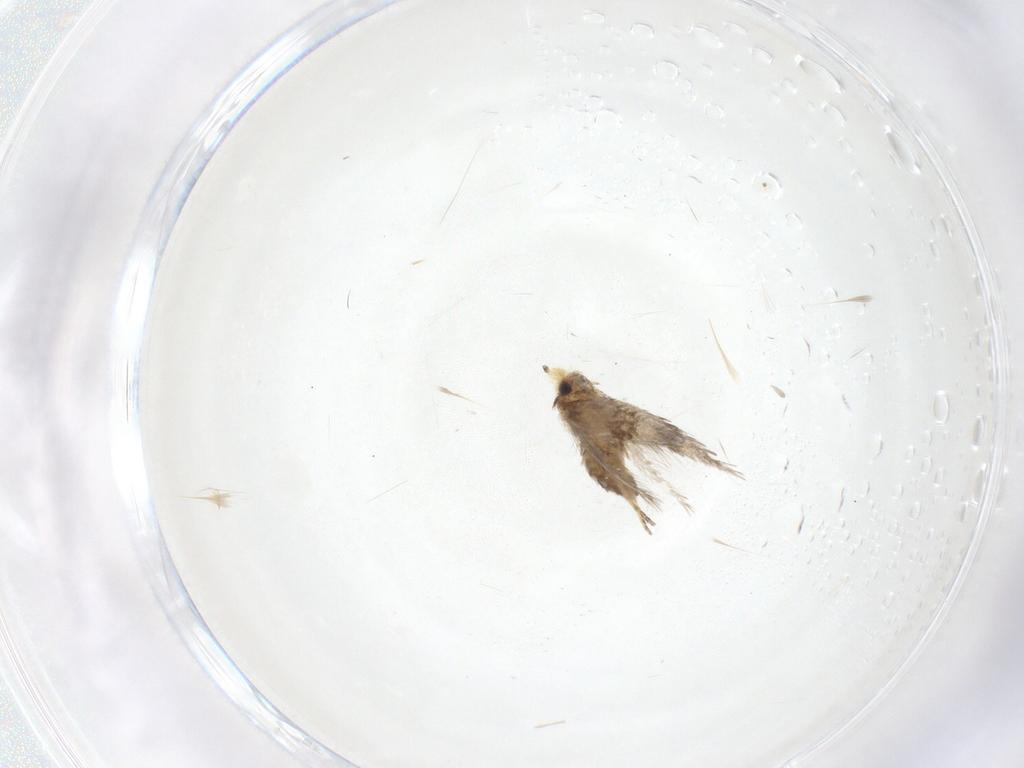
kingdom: Animalia
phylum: Arthropoda
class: Insecta
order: Lepidoptera
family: Nepticulidae
